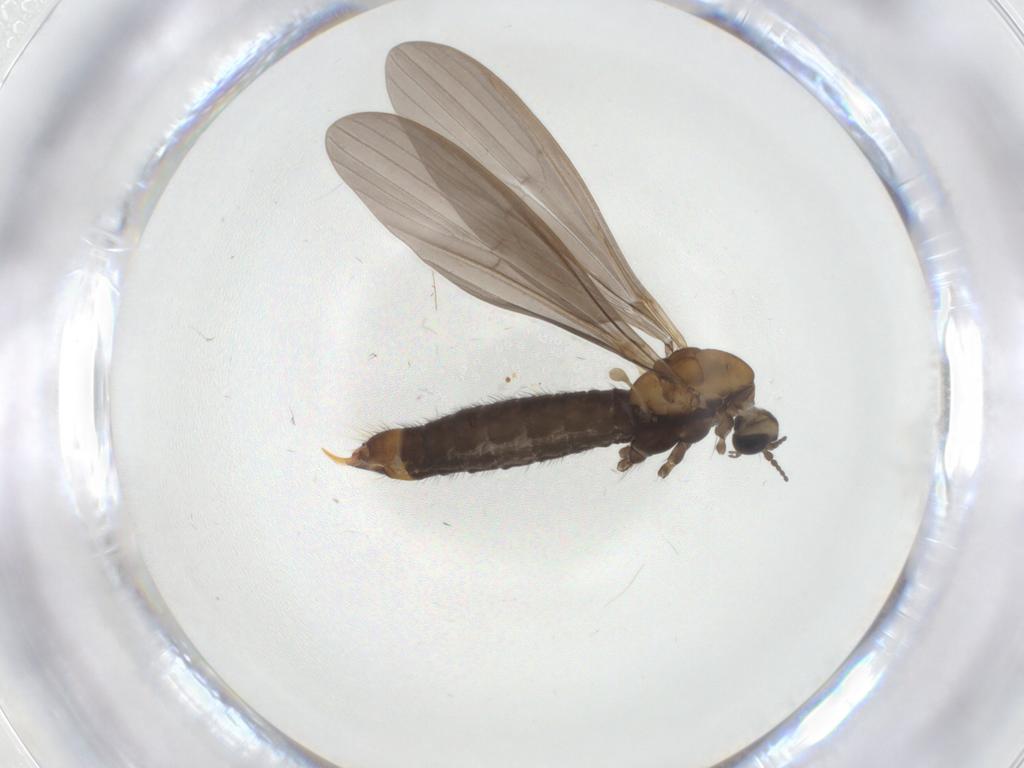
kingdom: Animalia
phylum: Arthropoda
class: Insecta
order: Diptera
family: Limoniidae
